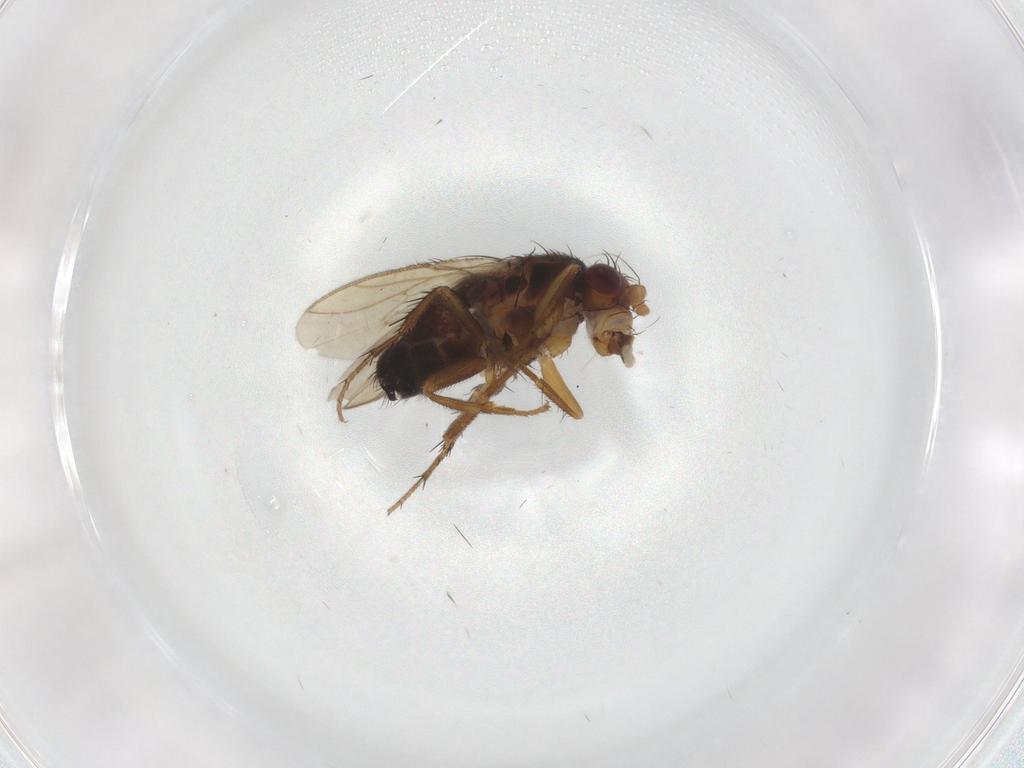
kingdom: Animalia
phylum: Arthropoda
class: Insecta
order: Diptera
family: Sphaeroceridae
